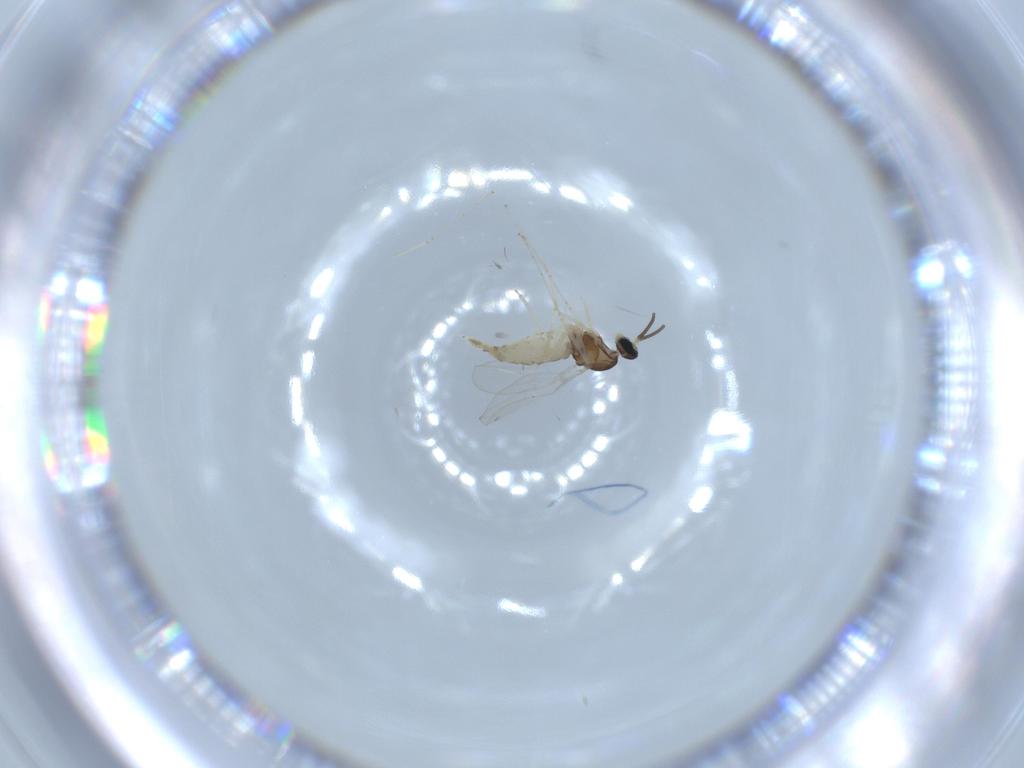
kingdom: Animalia
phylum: Arthropoda
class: Insecta
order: Diptera
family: Cecidomyiidae
